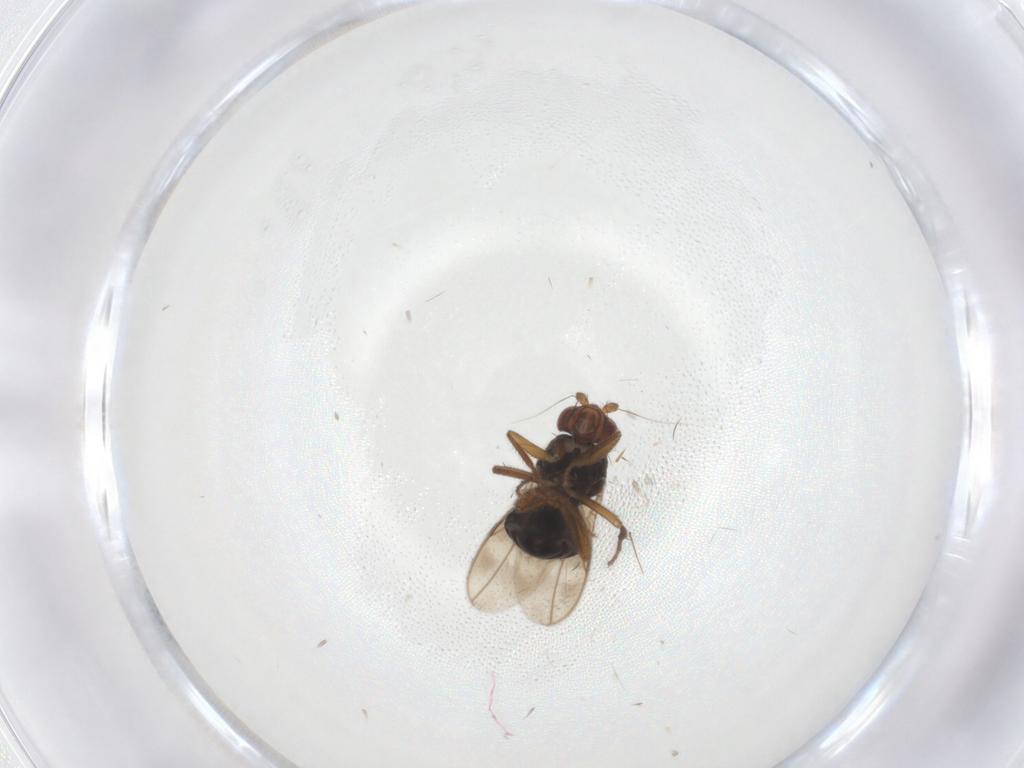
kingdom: Animalia
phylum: Arthropoda
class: Insecta
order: Diptera
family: Sphaeroceridae
